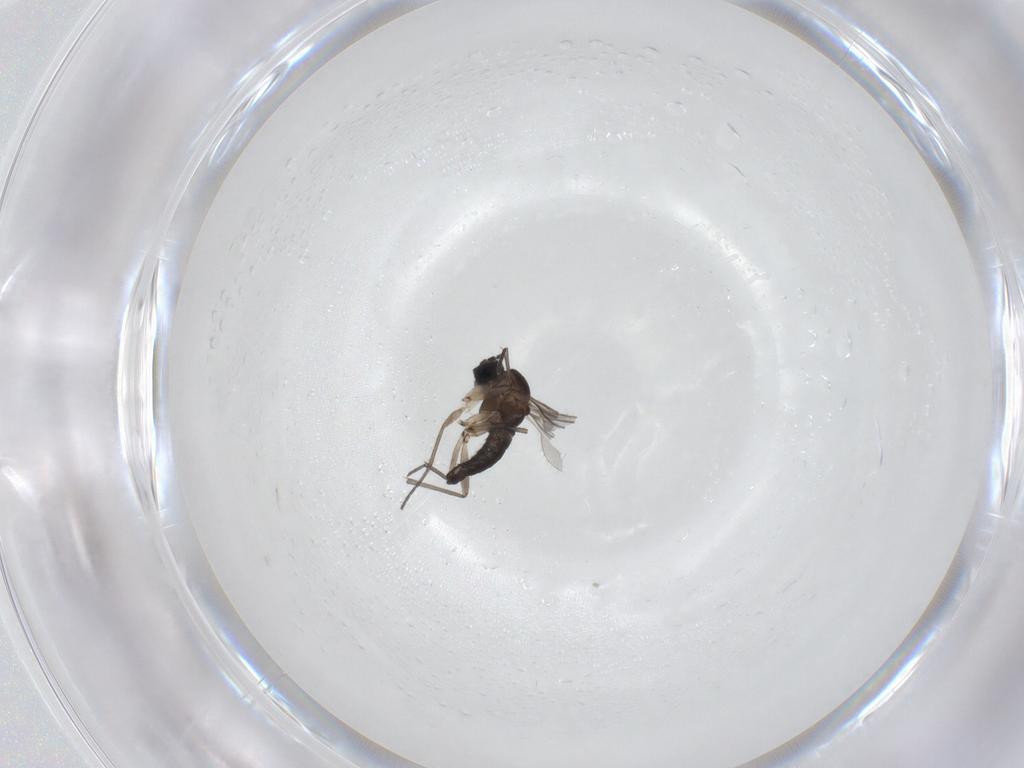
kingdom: Animalia
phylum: Arthropoda
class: Insecta
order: Diptera
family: Sciaridae
